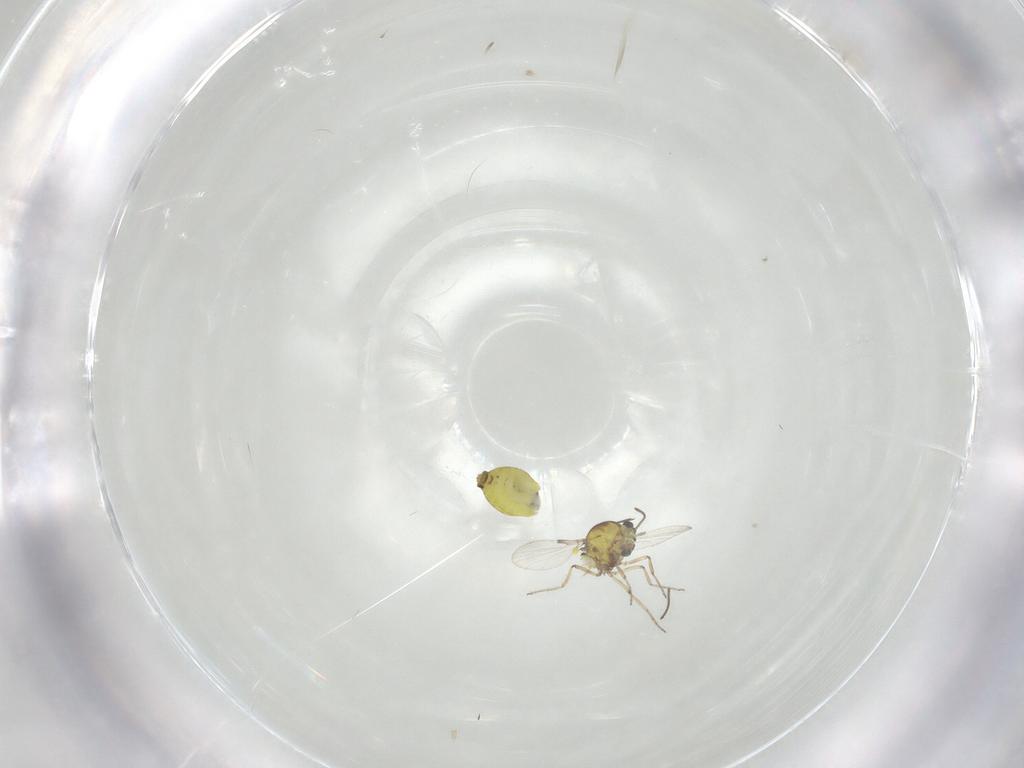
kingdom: Animalia
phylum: Arthropoda
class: Insecta
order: Diptera
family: Ceratopogonidae
